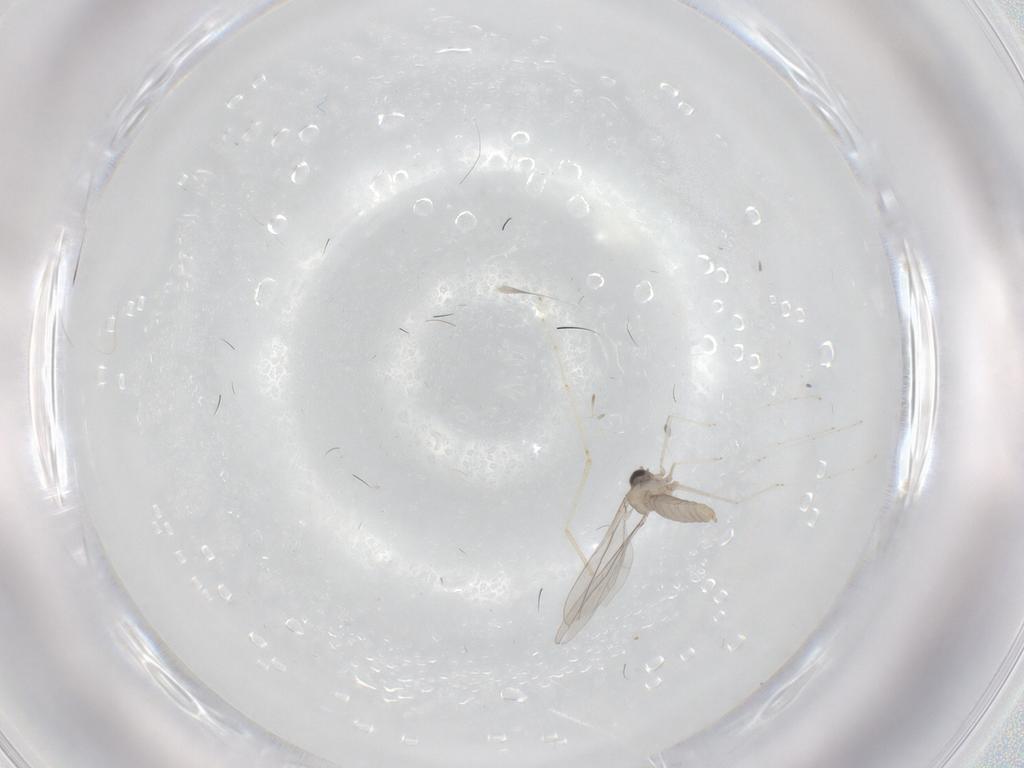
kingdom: Animalia
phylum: Arthropoda
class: Insecta
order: Diptera
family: Cecidomyiidae
